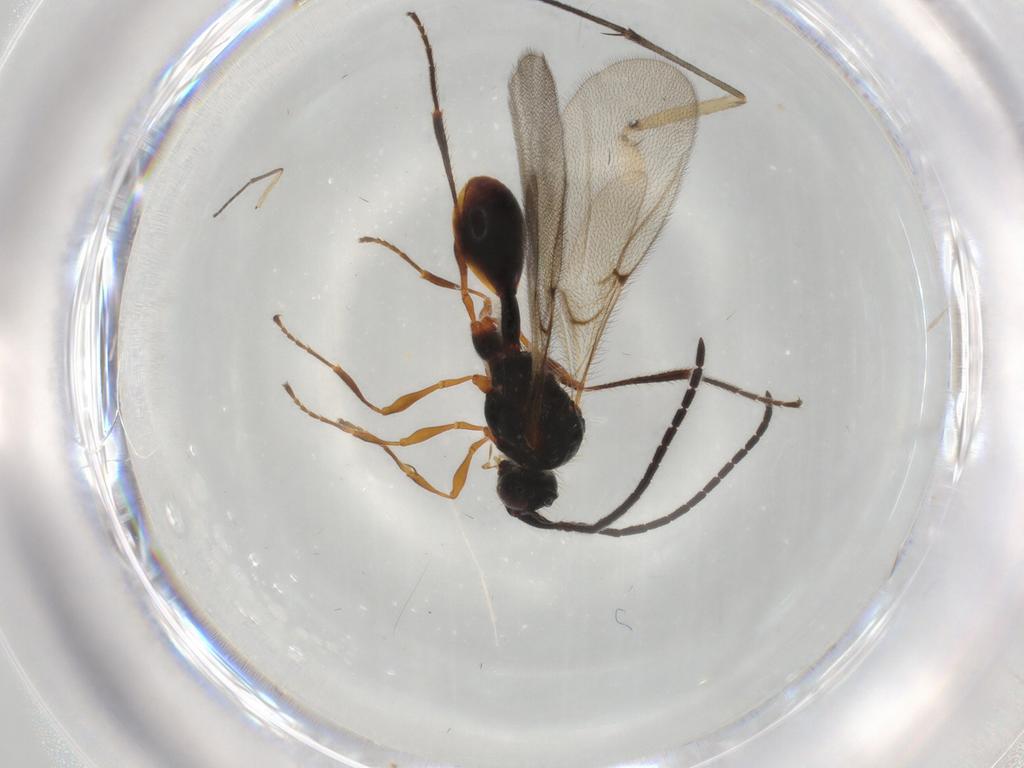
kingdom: Animalia
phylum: Arthropoda
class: Insecta
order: Hymenoptera
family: Diapriidae
